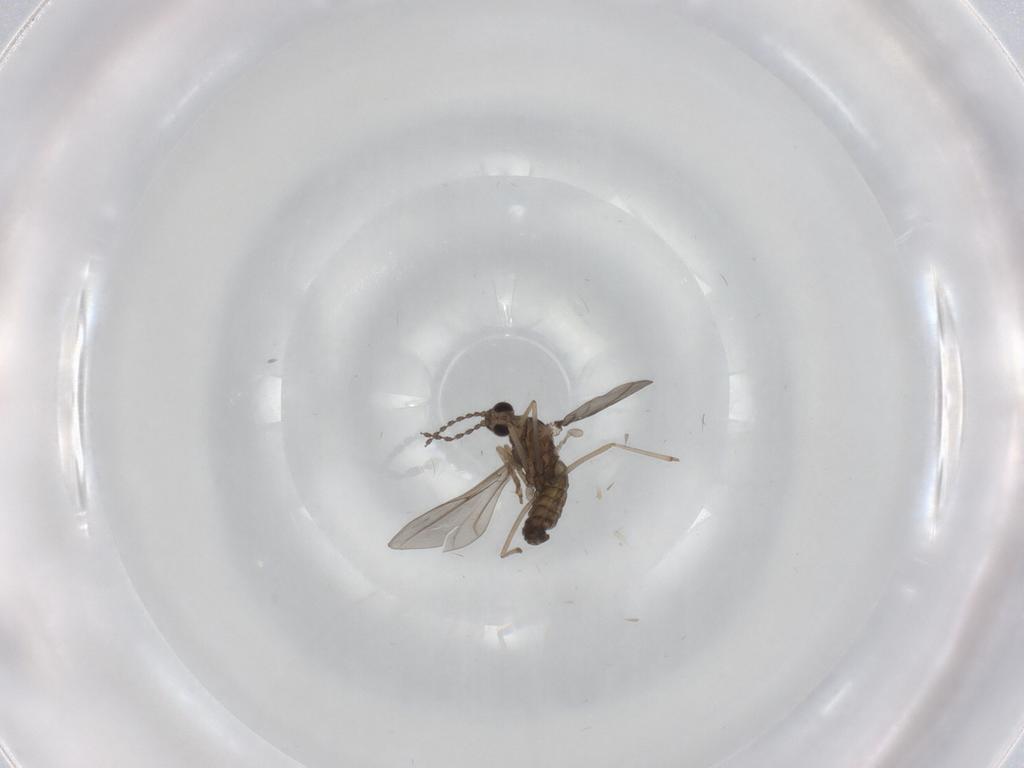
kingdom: Animalia
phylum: Arthropoda
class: Insecta
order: Diptera
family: Cecidomyiidae
